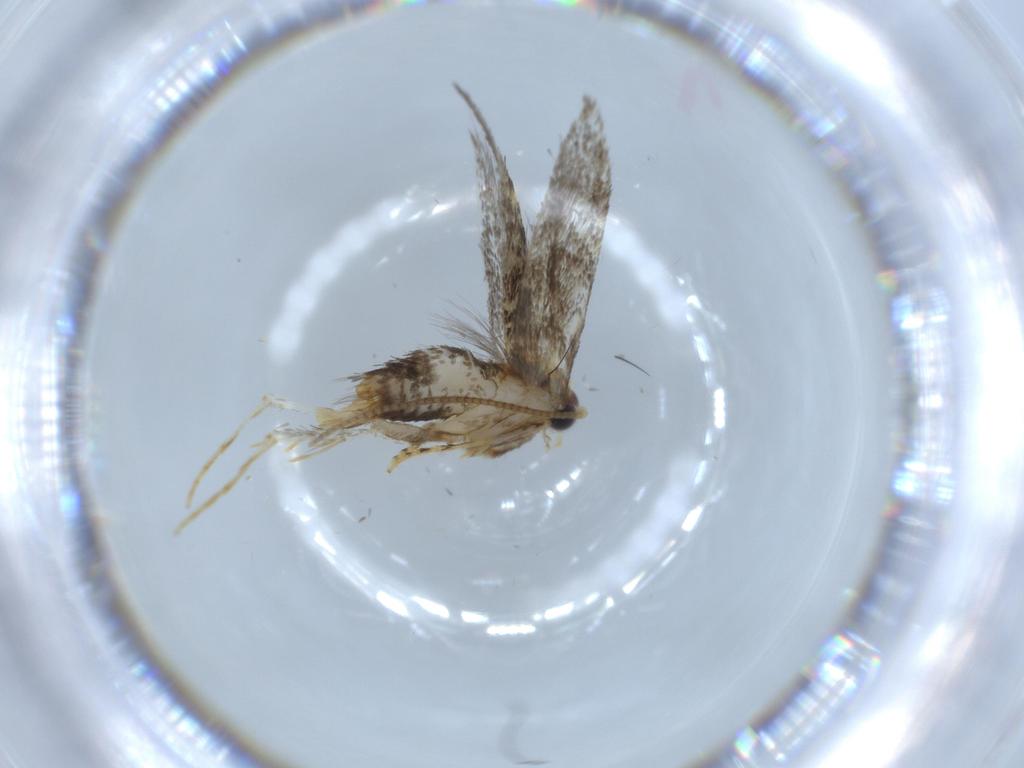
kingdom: Animalia
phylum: Arthropoda
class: Insecta
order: Lepidoptera
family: Tineidae
